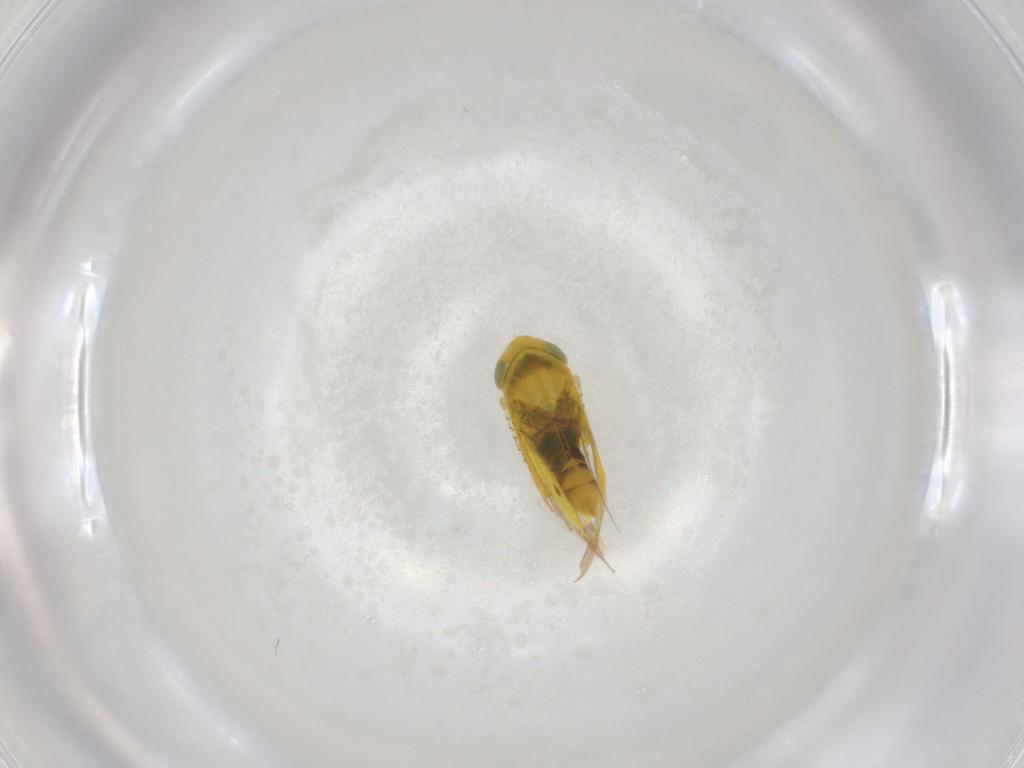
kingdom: Animalia
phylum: Arthropoda
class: Insecta
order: Hemiptera
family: Cicadellidae
